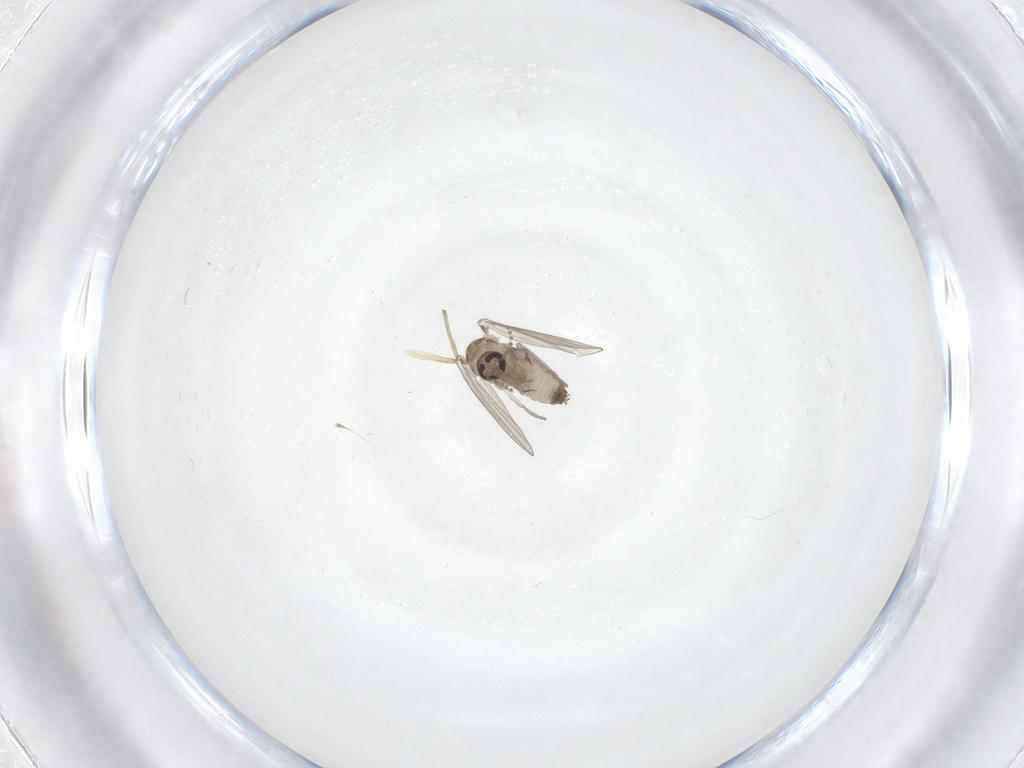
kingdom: Animalia
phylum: Arthropoda
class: Insecta
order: Diptera
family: Psychodidae
